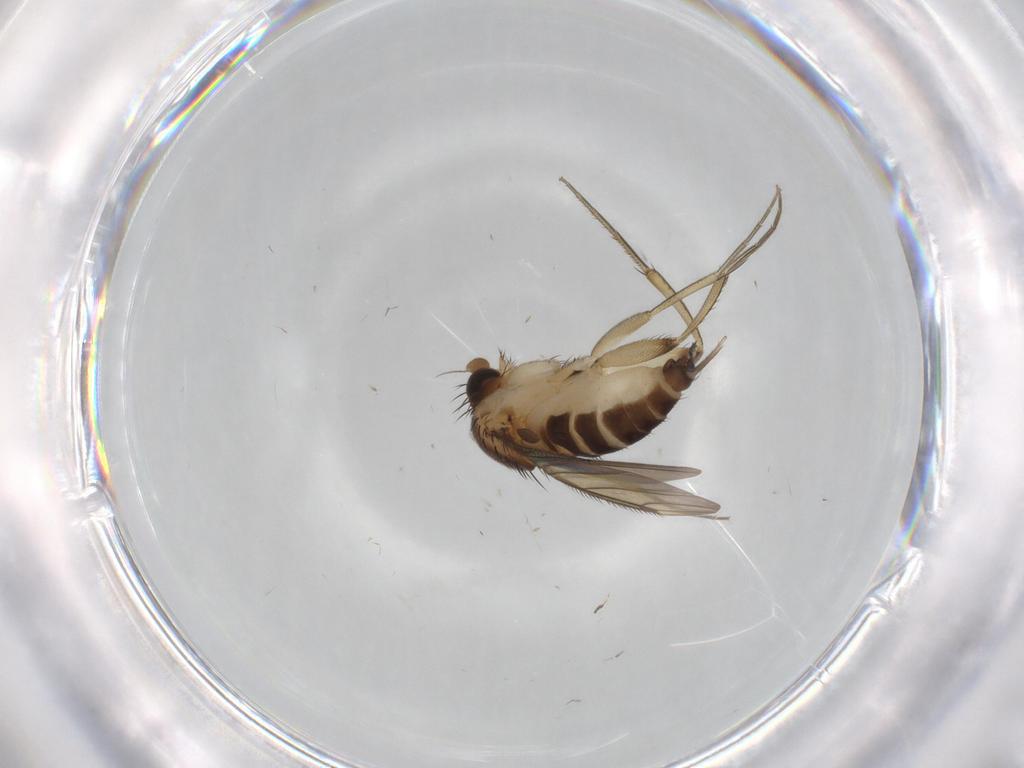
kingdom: Animalia
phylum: Arthropoda
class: Insecta
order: Diptera
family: Phoridae
